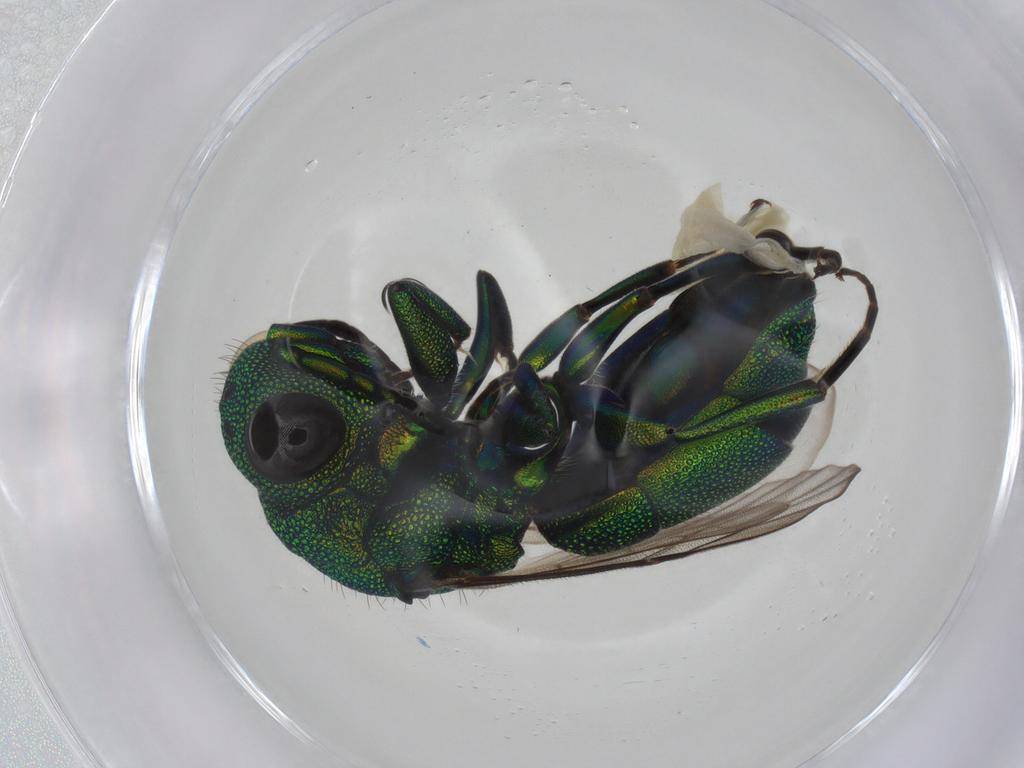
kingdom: Animalia
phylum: Arthropoda
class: Insecta
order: Hymenoptera
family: Chrysididae
